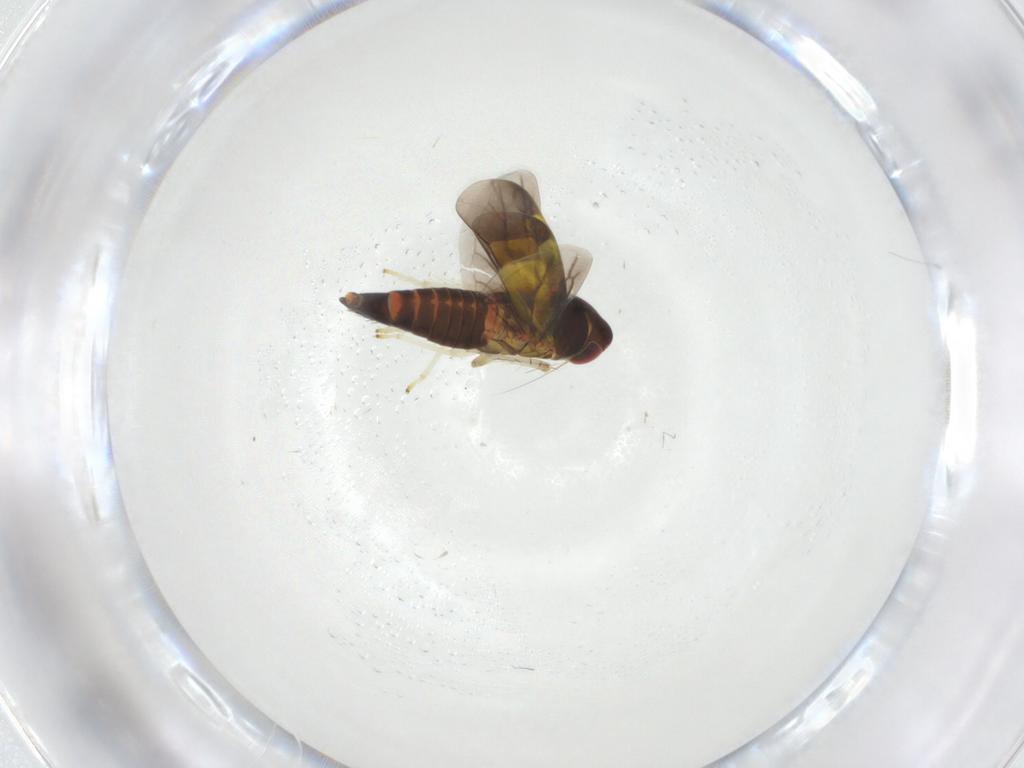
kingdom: Animalia
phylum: Arthropoda
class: Insecta
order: Hemiptera
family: Cicadellidae
